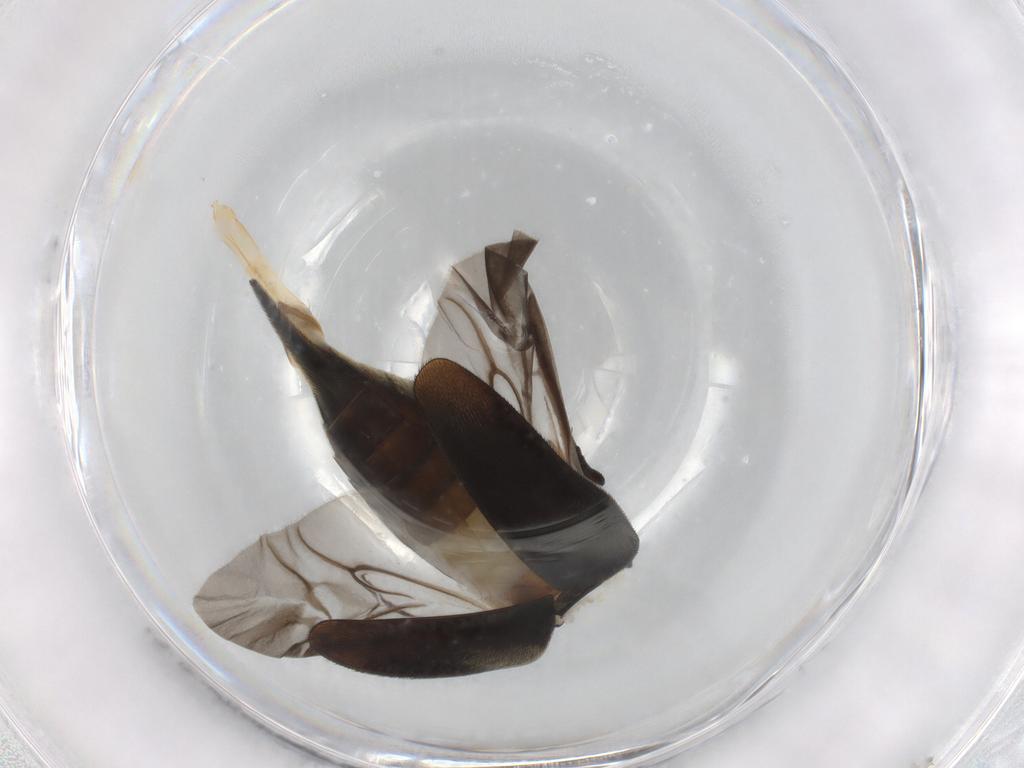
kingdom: Animalia
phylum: Arthropoda
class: Insecta
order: Coleoptera
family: Mordellidae
